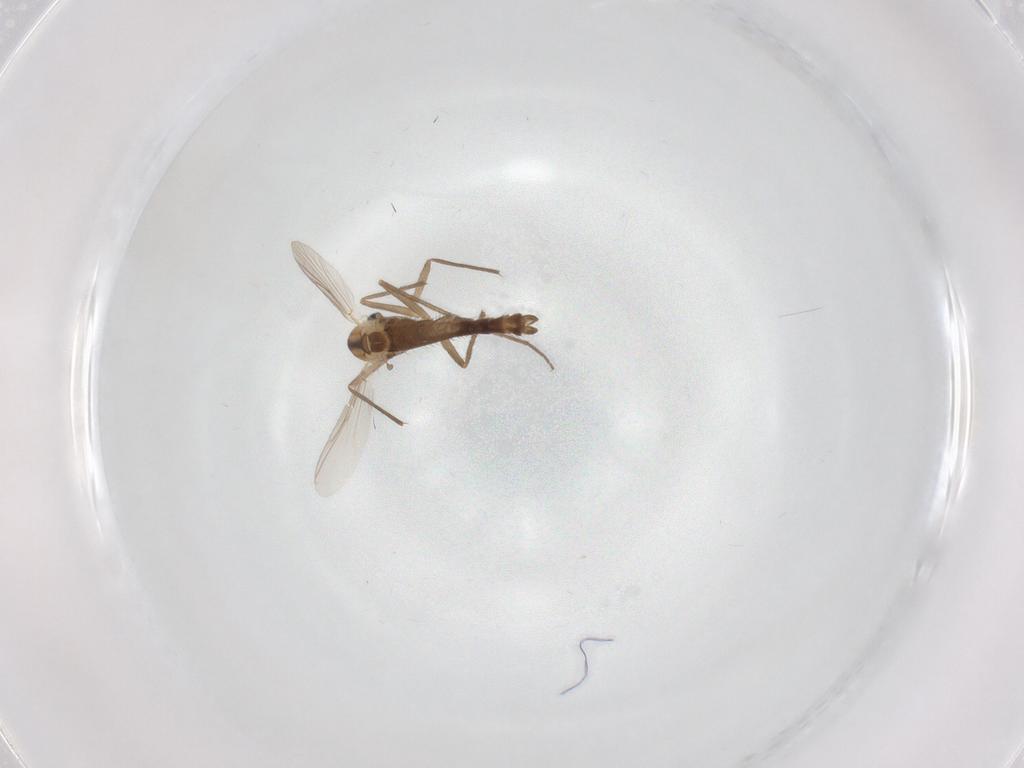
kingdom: Animalia
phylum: Arthropoda
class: Insecta
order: Diptera
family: Chironomidae
